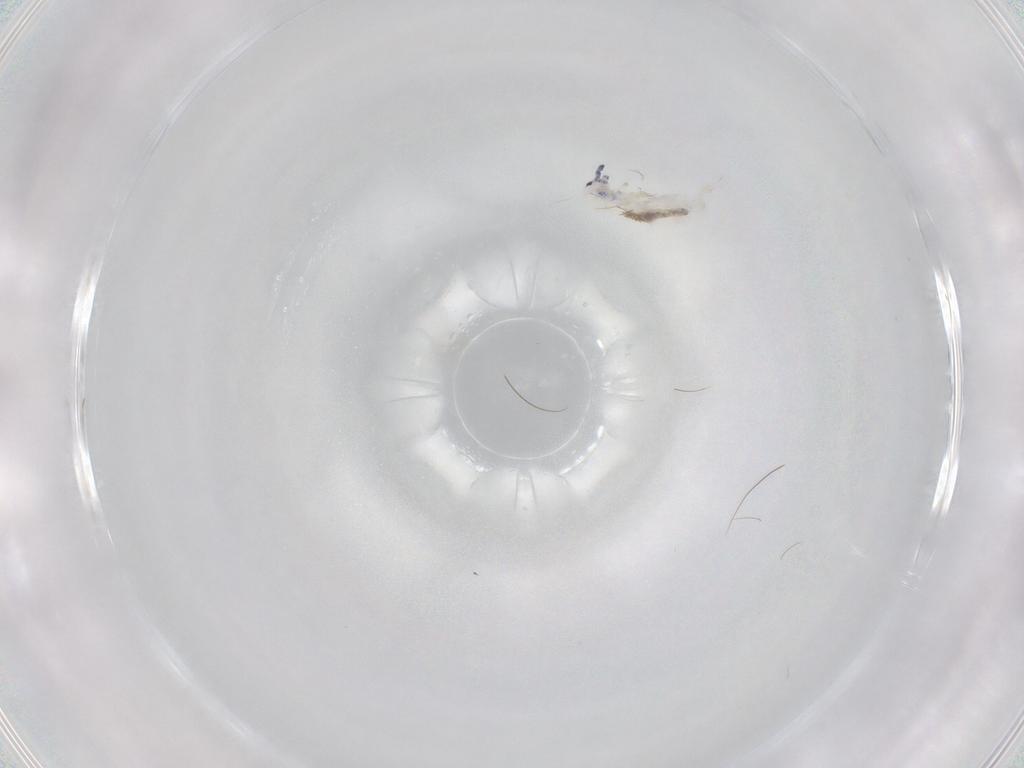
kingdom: Animalia
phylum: Arthropoda
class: Collembola
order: Entomobryomorpha
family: Entomobryidae
